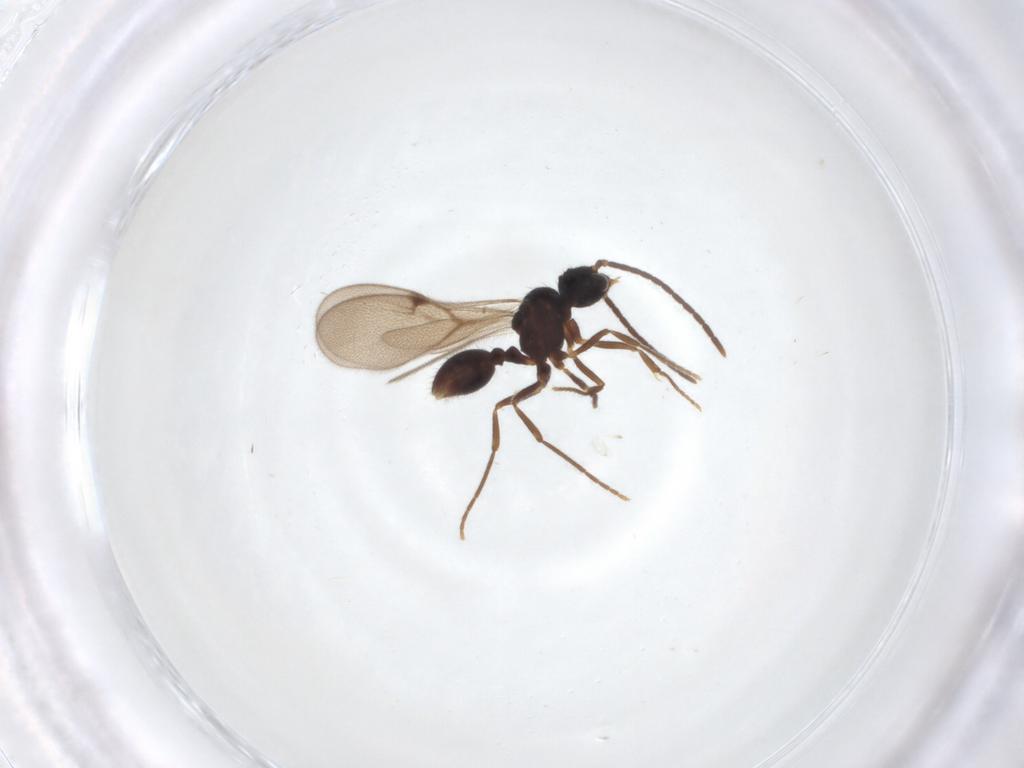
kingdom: Animalia
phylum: Arthropoda
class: Insecta
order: Hymenoptera
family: Formicidae
